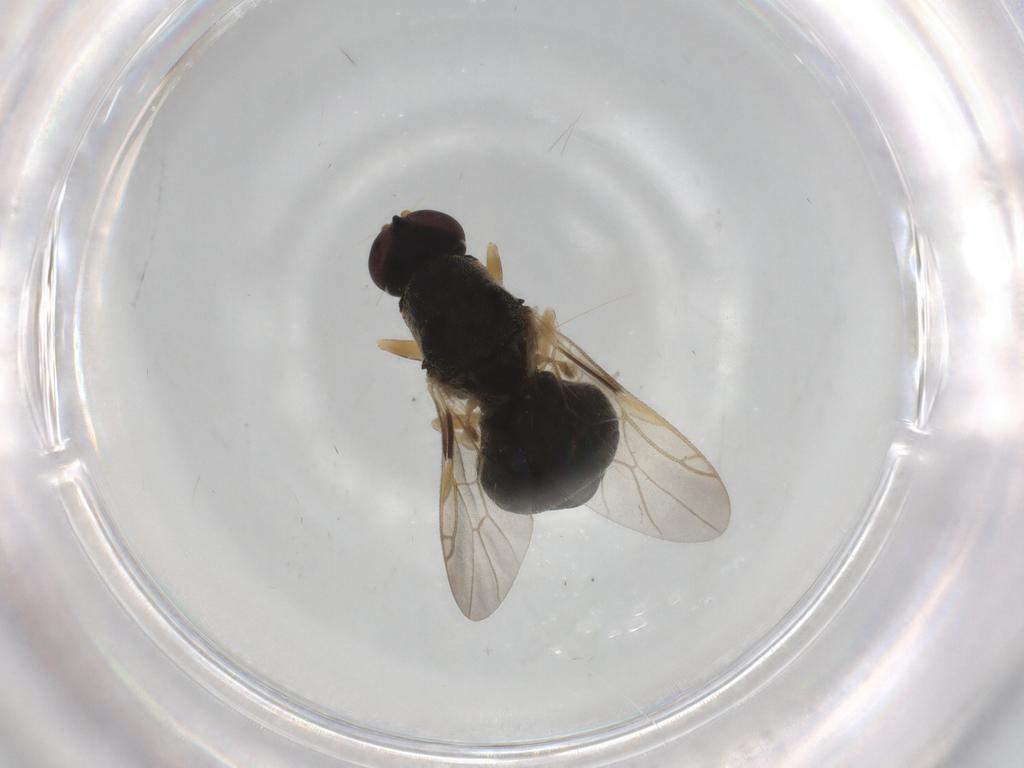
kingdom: Animalia
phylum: Arthropoda
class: Insecta
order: Diptera
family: Stratiomyidae
